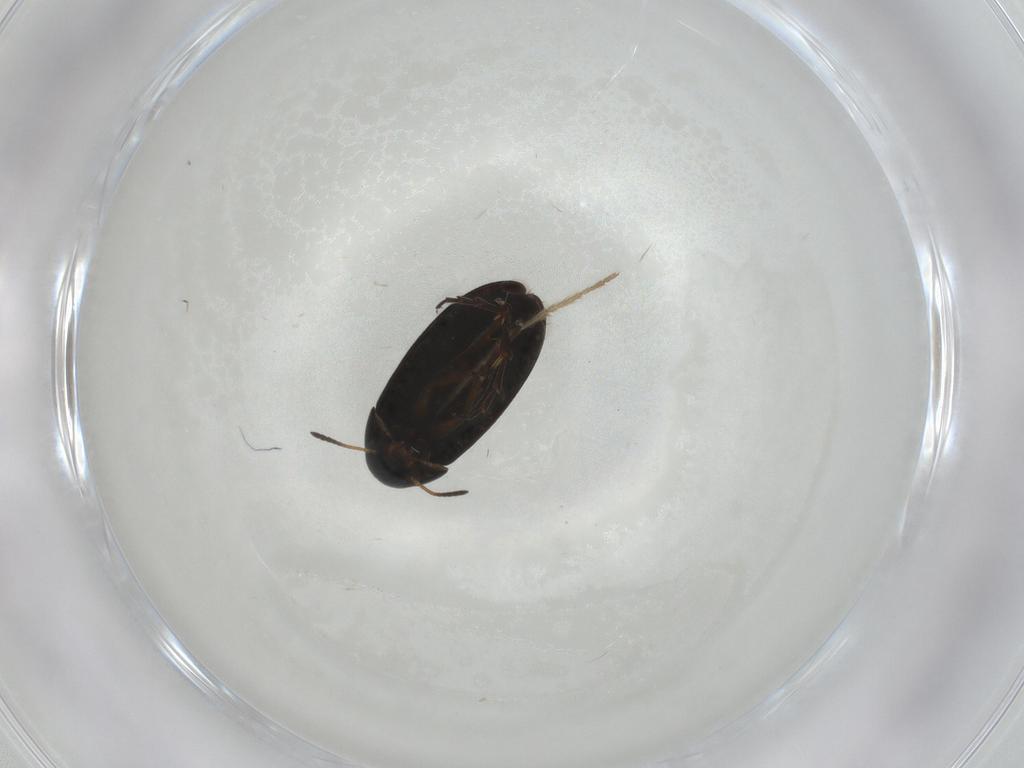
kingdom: Animalia
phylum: Arthropoda
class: Insecta
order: Coleoptera
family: Scraptiidae
